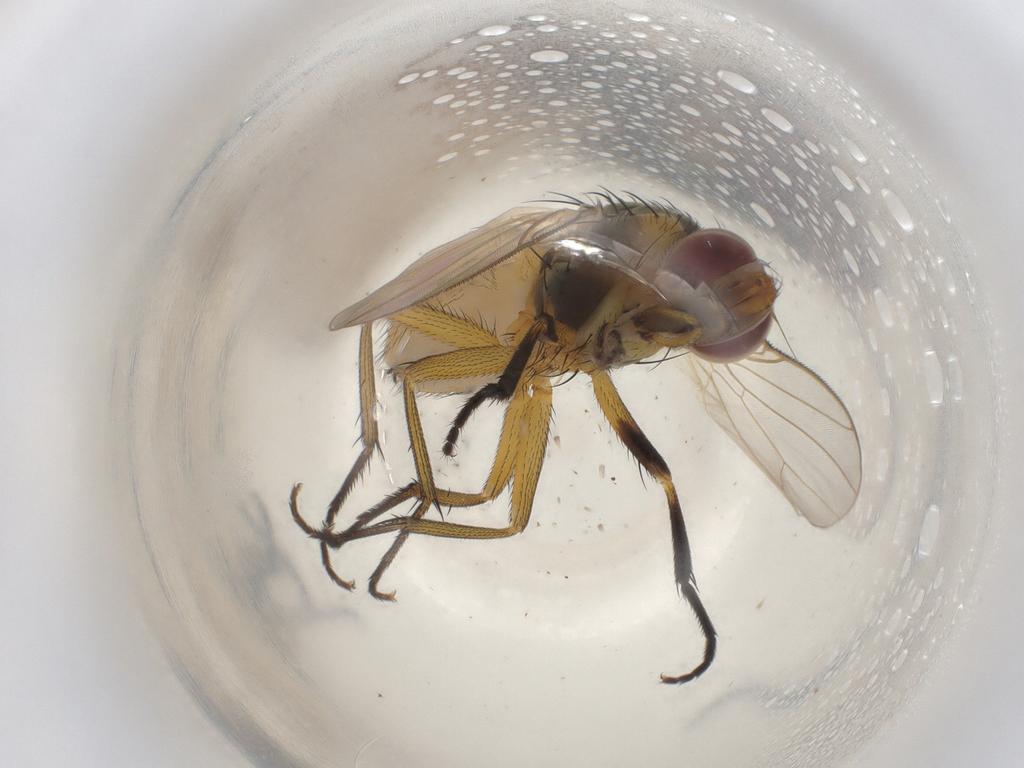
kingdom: Animalia
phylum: Arthropoda
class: Insecta
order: Diptera
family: Muscidae
